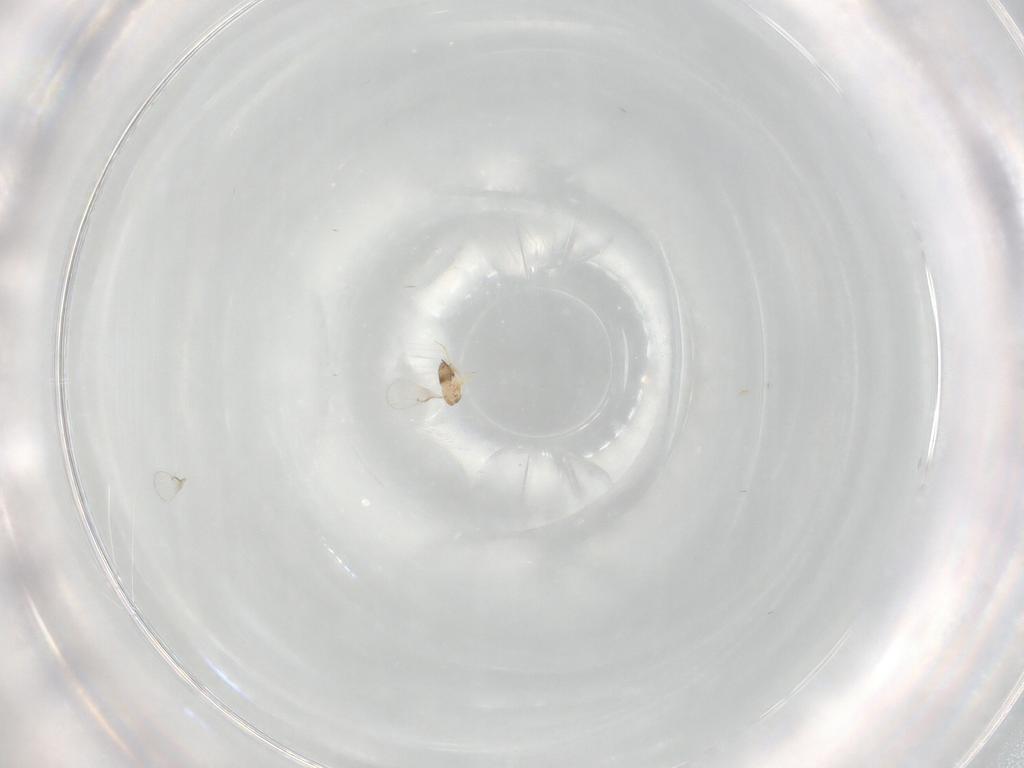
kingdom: Animalia
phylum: Arthropoda
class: Insecta
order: Hymenoptera
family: Trichogrammatidae
